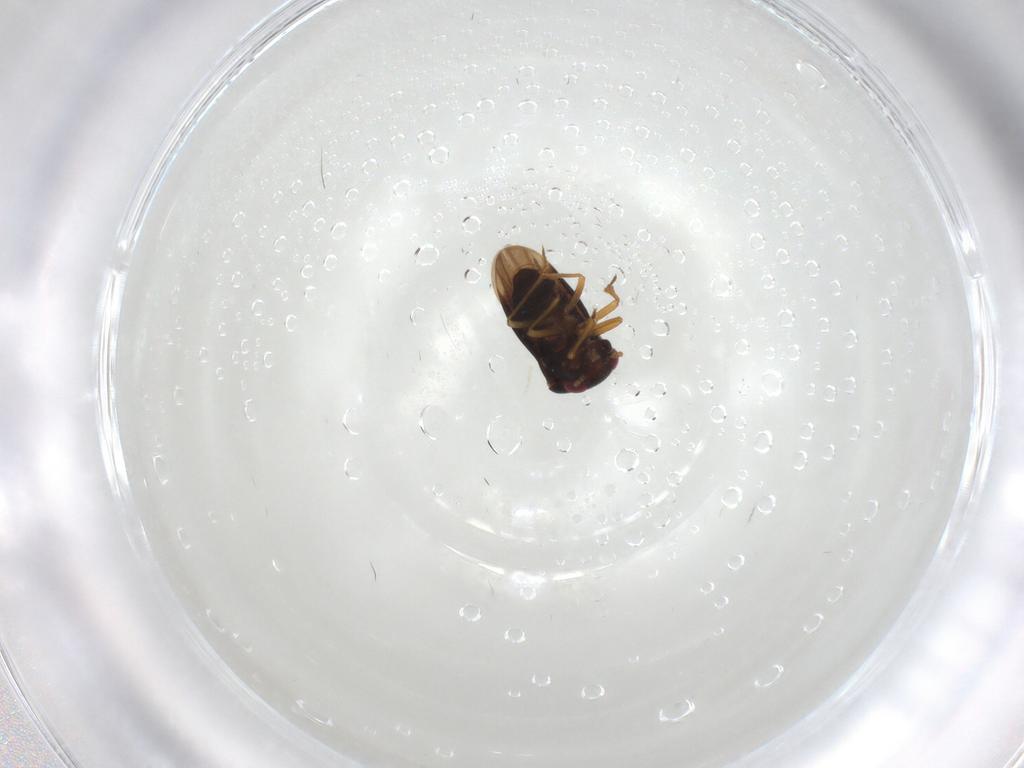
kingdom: Animalia
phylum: Arthropoda
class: Insecta
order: Hemiptera
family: Schizopteridae
